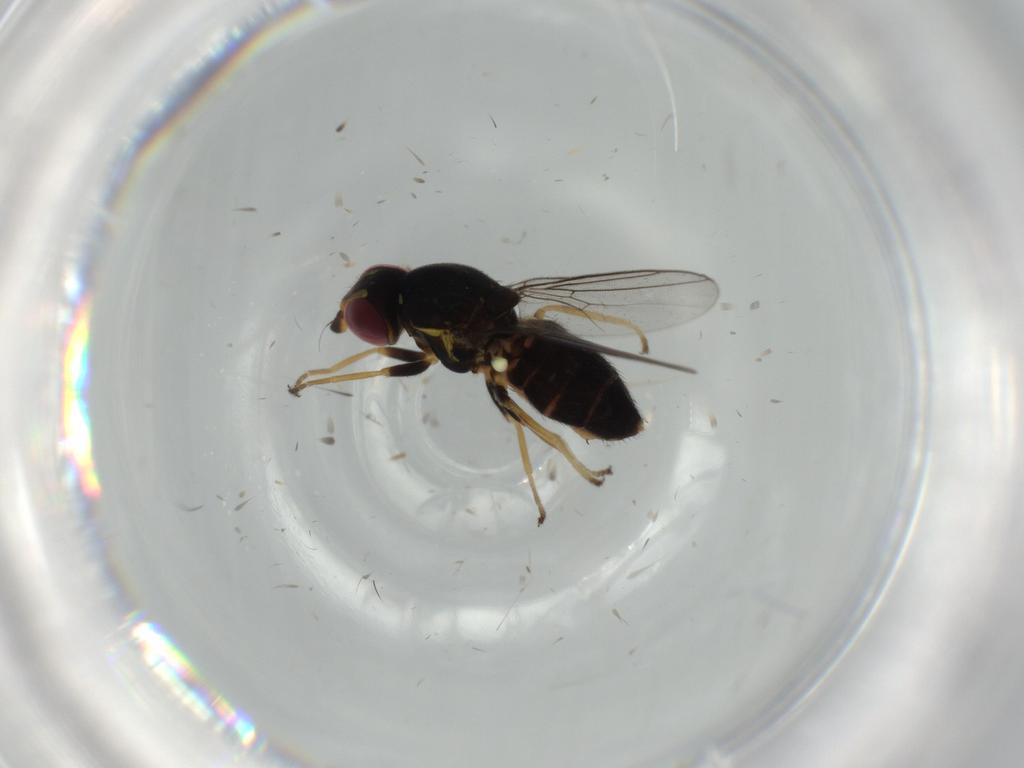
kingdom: Animalia
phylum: Arthropoda
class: Insecta
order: Diptera
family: Chloropidae
